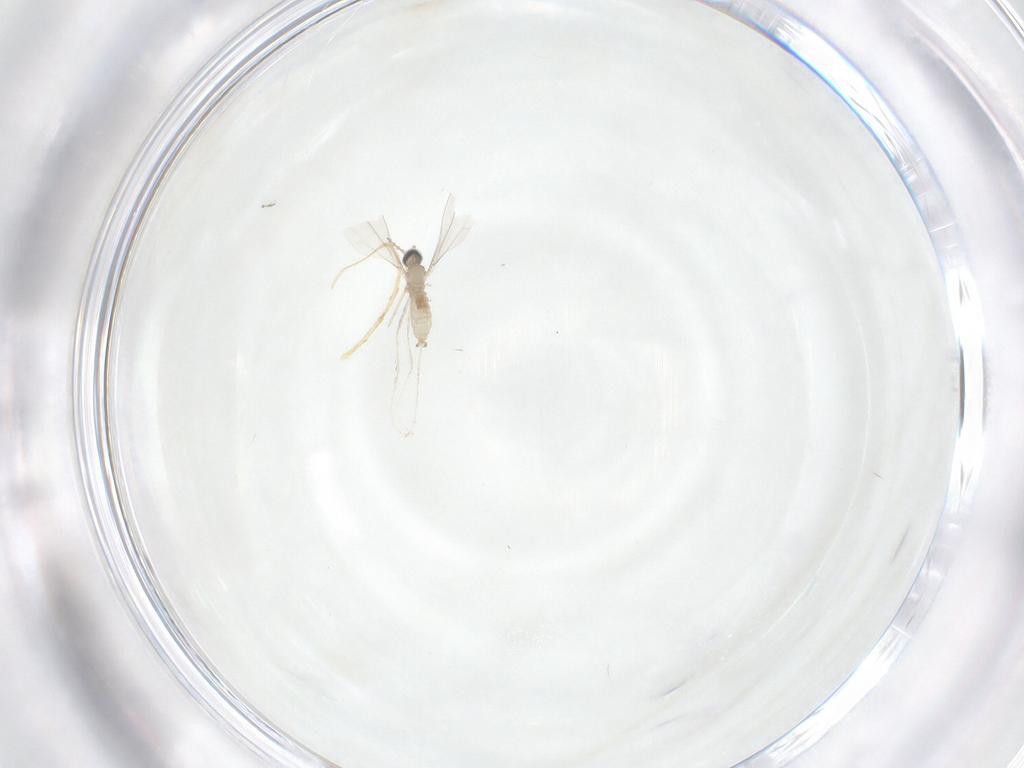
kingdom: Animalia
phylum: Arthropoda
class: Insecta
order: Diptera
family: Cecidomyiidae
